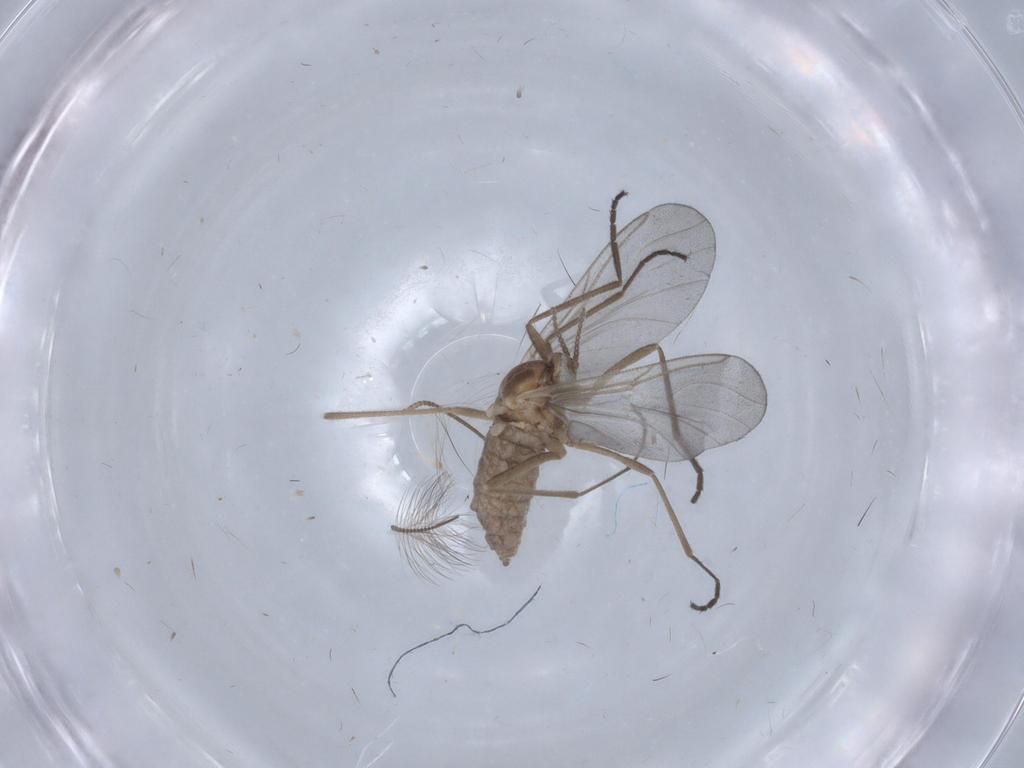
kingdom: Animalia
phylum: Arthropoda
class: Insecta
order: Diptera
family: Cecidomyiidae
